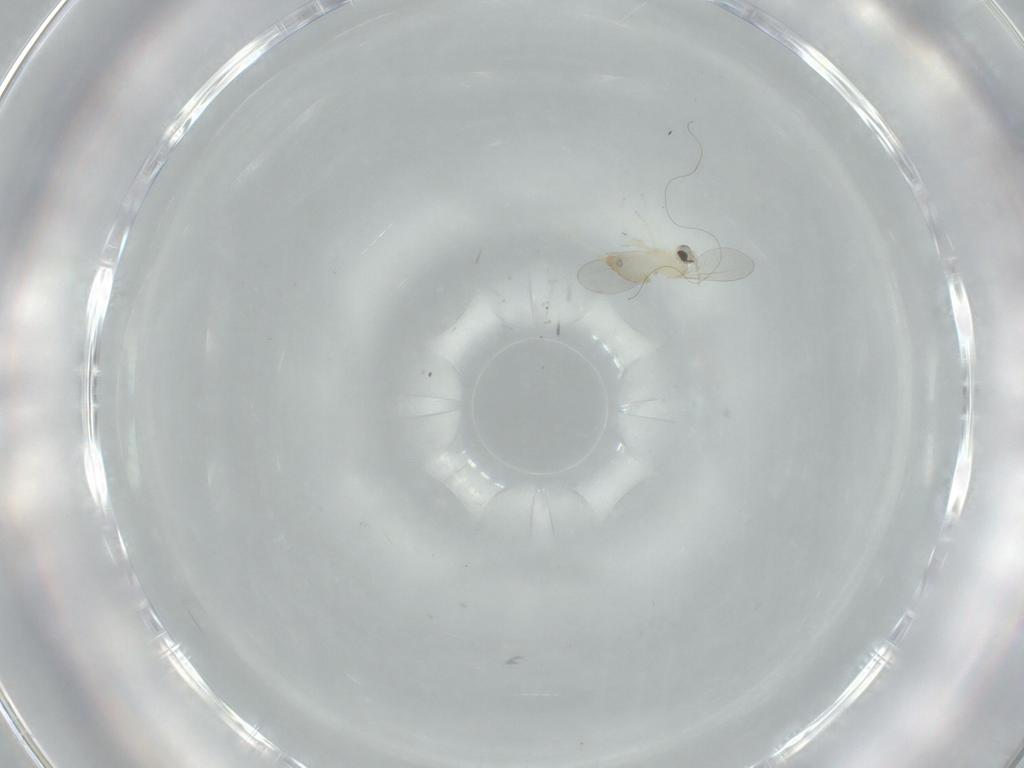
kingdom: Animalia
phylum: Arthropoda
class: Insecta
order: Diptera
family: Cecidomyiidae
